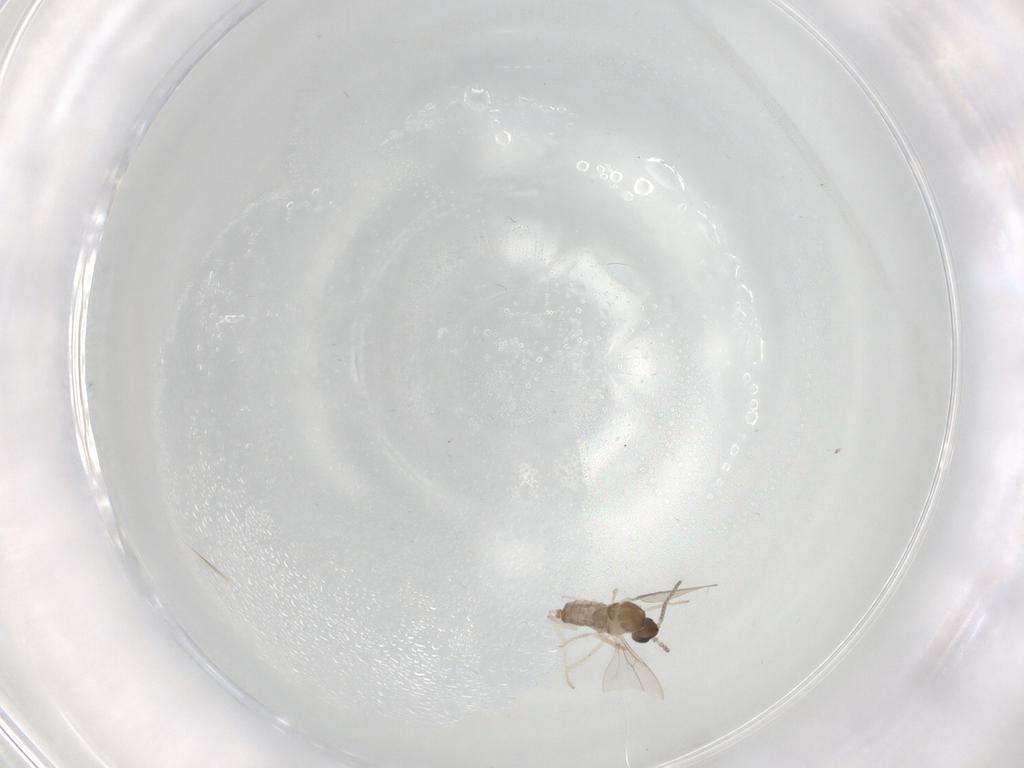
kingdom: Animalia
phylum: Arthropoda
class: Insecta
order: Diptera
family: Cecidomyiidae
